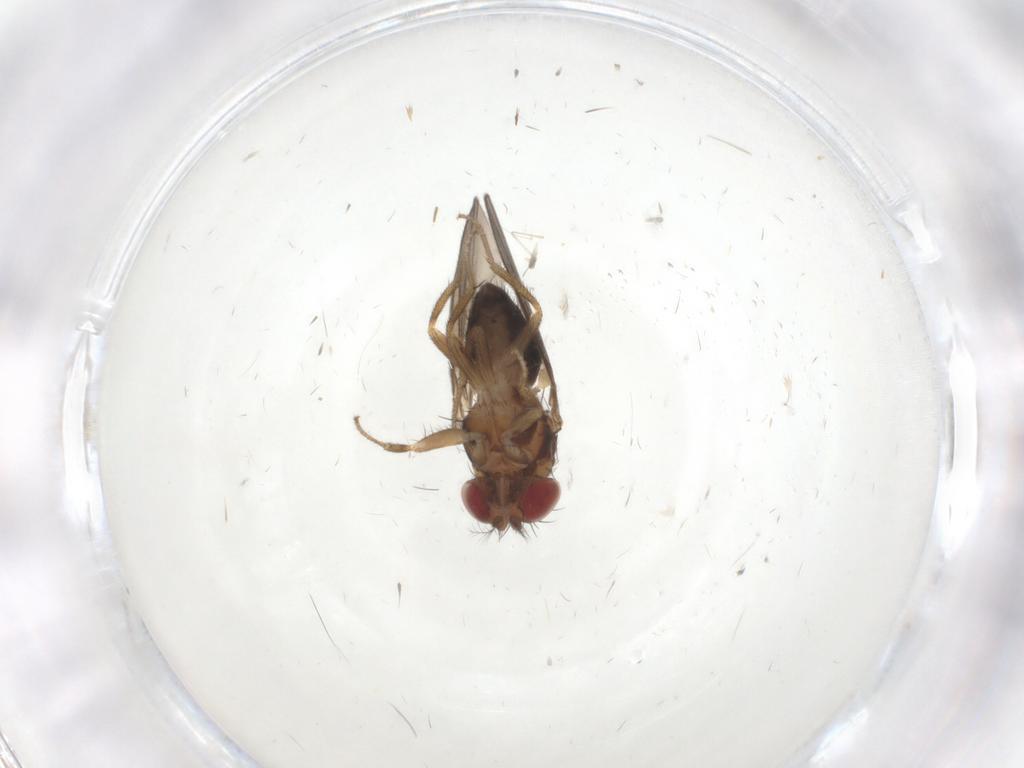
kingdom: Animalia
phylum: Arthropoda
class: Insecta
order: Diptera
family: Drosophilidae
